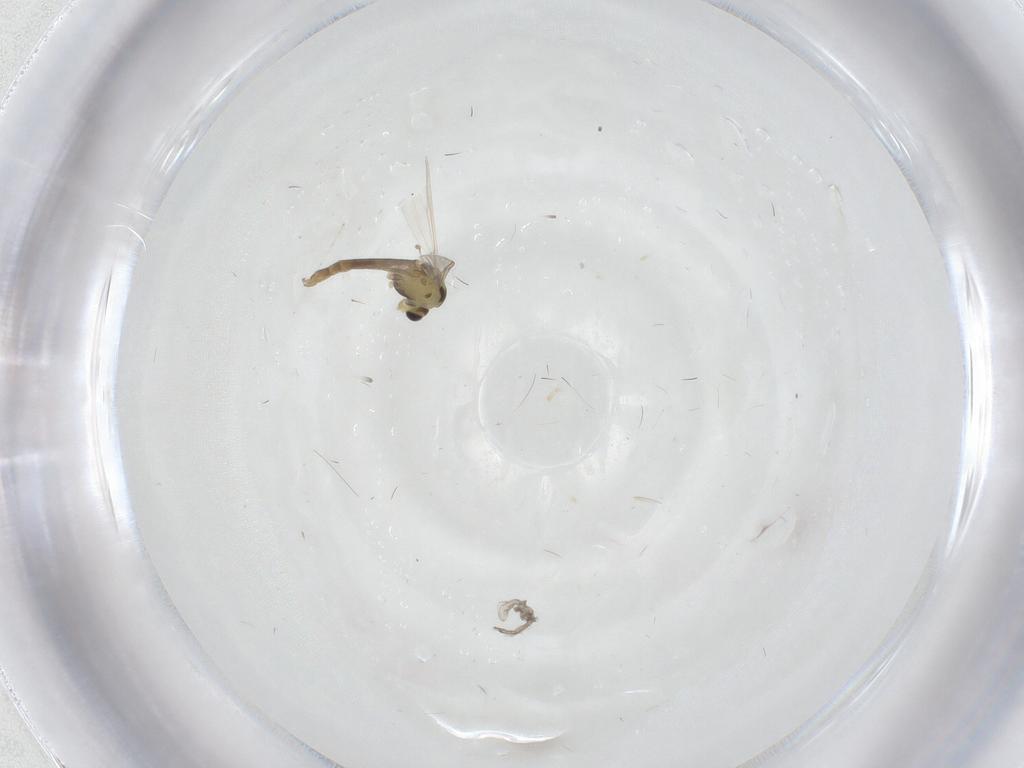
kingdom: Animalia
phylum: Arthropoda
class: Insecta
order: Diptera
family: Chironomidae
